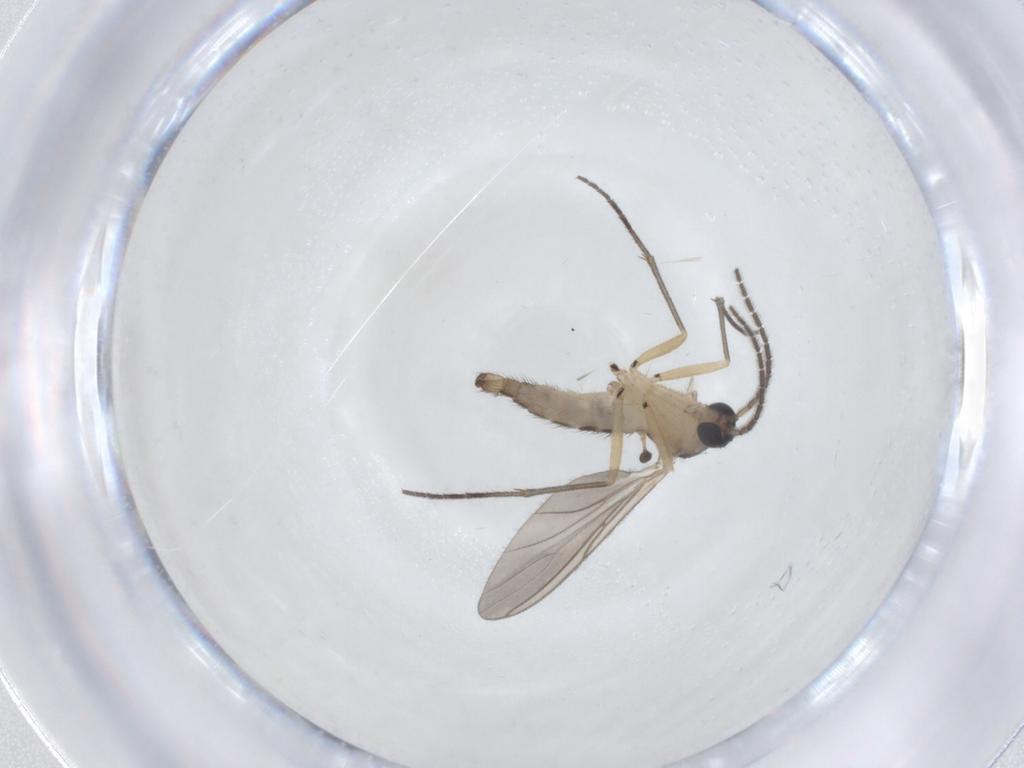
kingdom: Animalia
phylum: Arthropoda
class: Insecta
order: Diptera
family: Sciaridae
